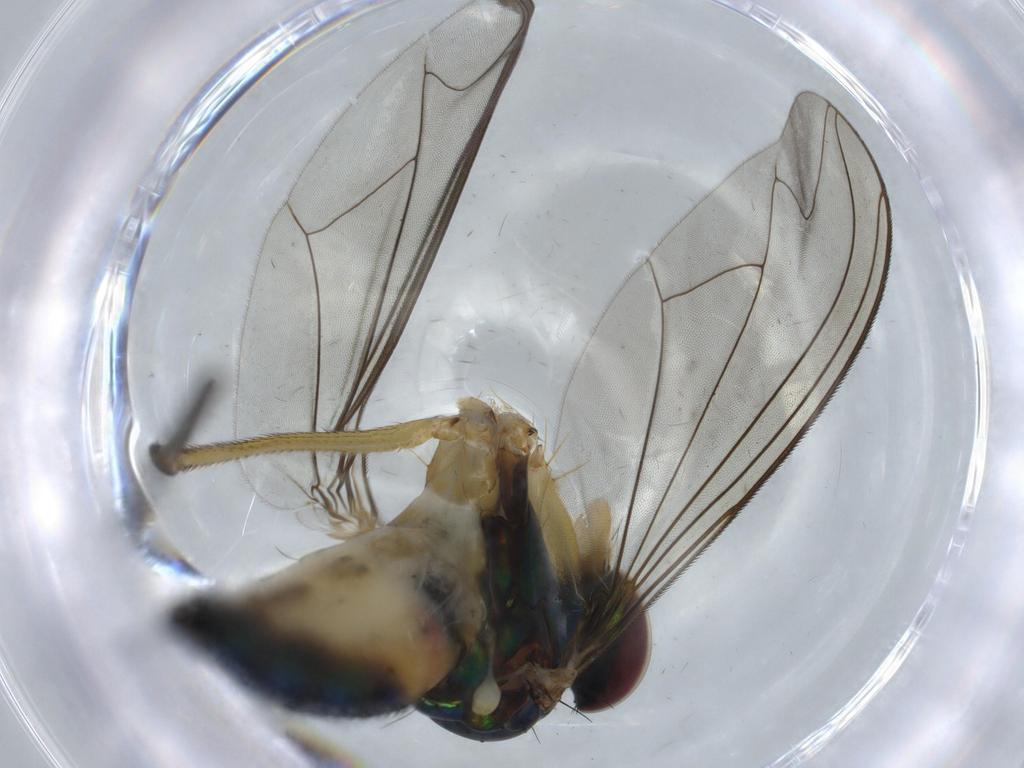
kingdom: Animalia
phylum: Arthropoda
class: Insecta
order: Diptera
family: Dolichopodidae
